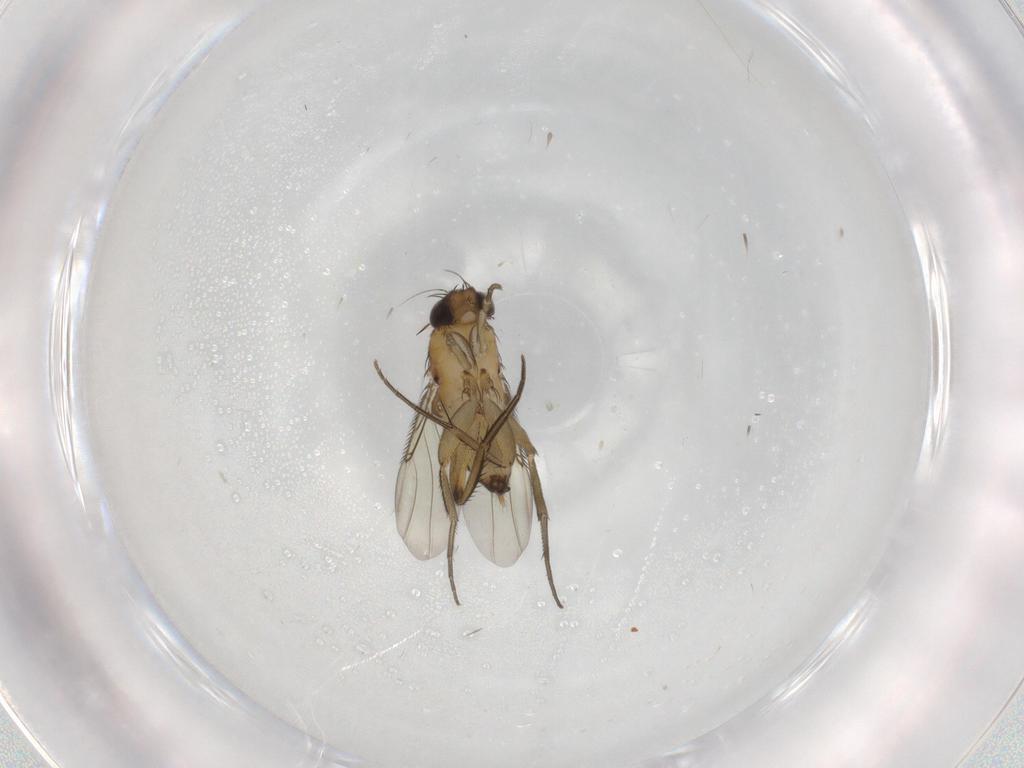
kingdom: Animalia
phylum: Arthropoda
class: Insecta
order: Diptera
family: Phoridae
